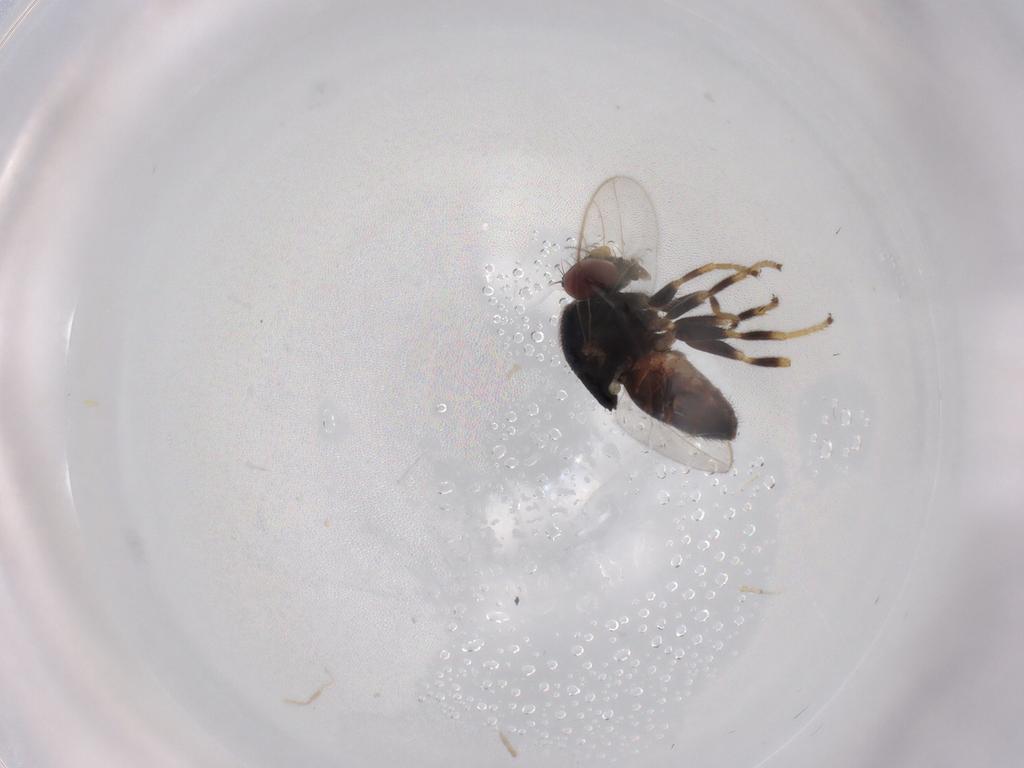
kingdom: Animalia
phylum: Arthropoda
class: Insecta
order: Diptera
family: Chloropidae
